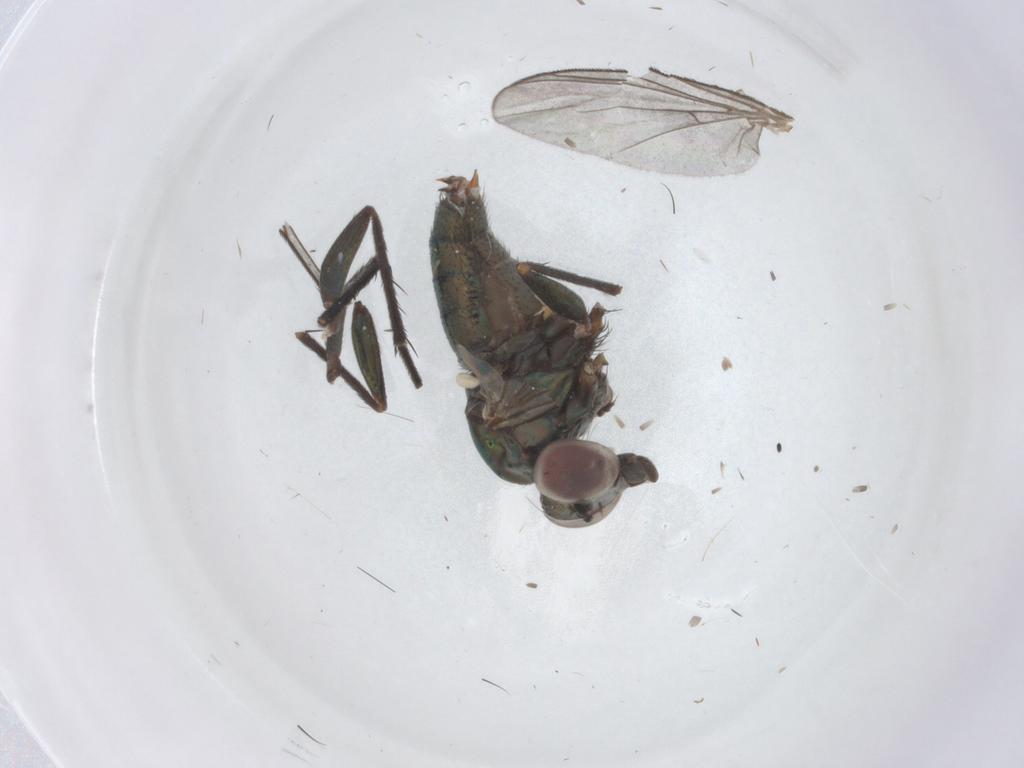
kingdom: Animalia
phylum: Arthropoda
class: Insecta
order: Diptera
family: Dolichopodidae
